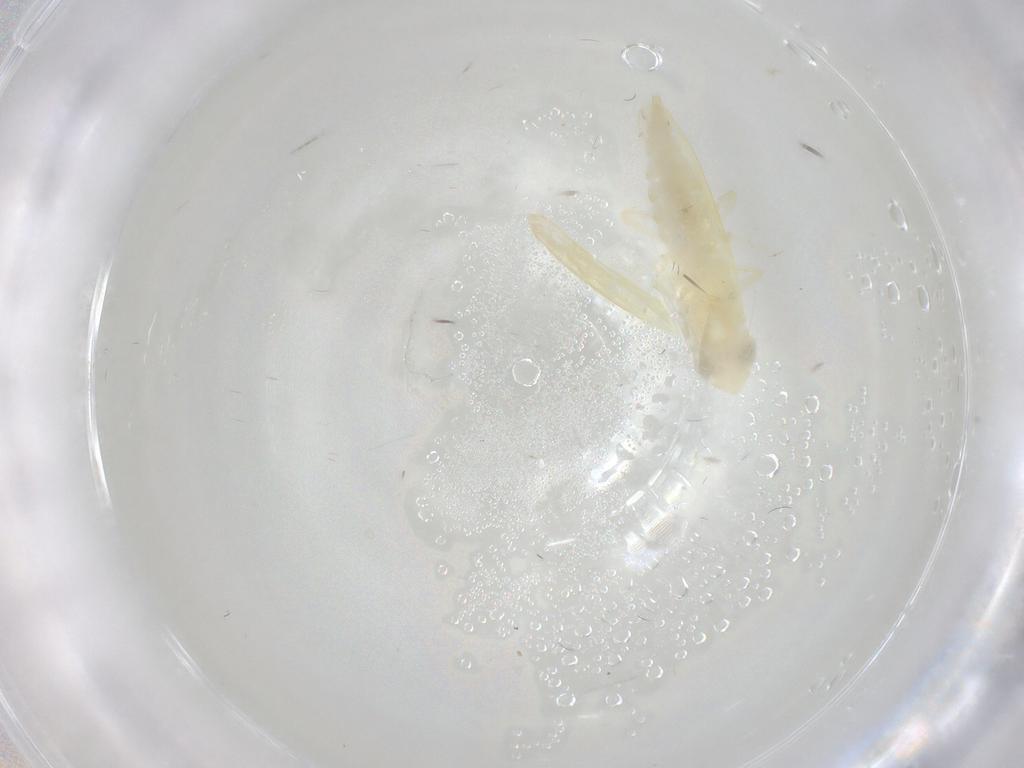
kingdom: Animalia
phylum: Arthropoda
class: Insecta
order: Hemiptera
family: Cicadellidae
